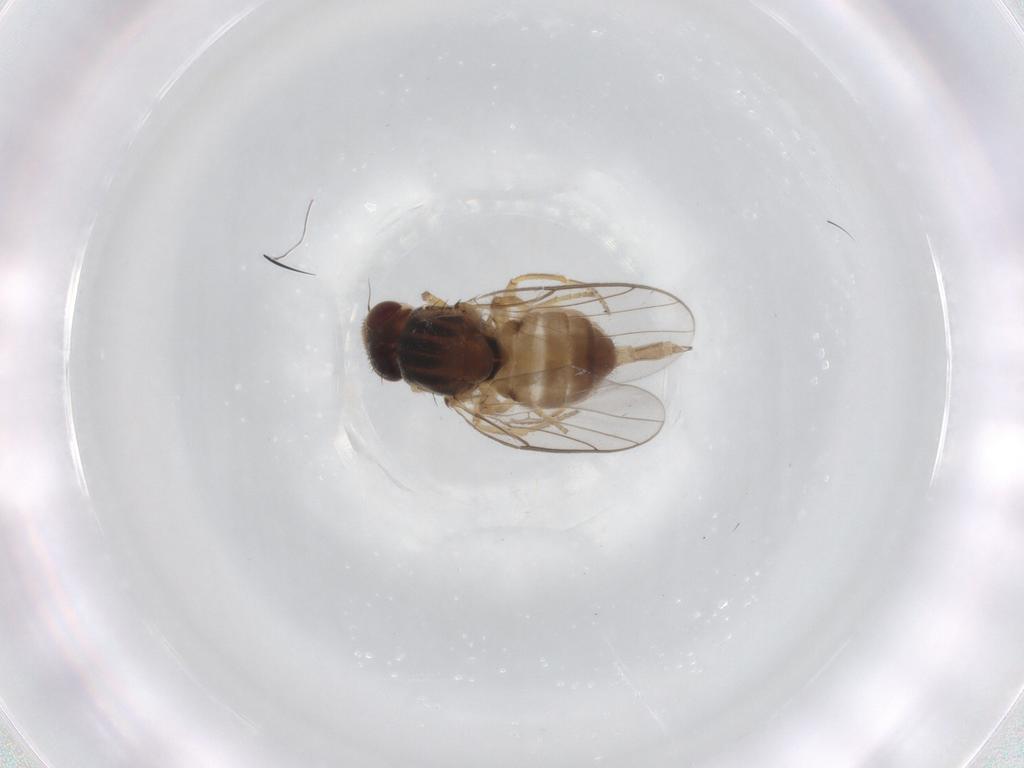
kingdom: Animalia
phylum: Arthropoda
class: Insecta
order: Diptera
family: Chloropidae
